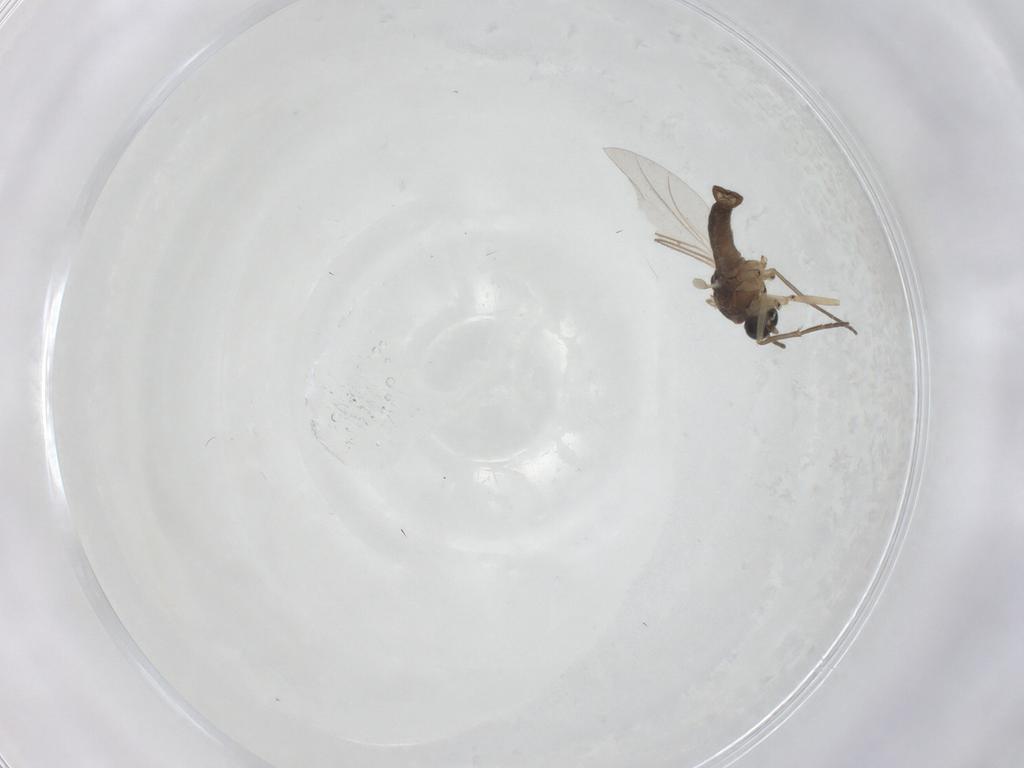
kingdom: Animalia
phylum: Arthropoda
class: Insecta
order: Diptera
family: Sciaridae
